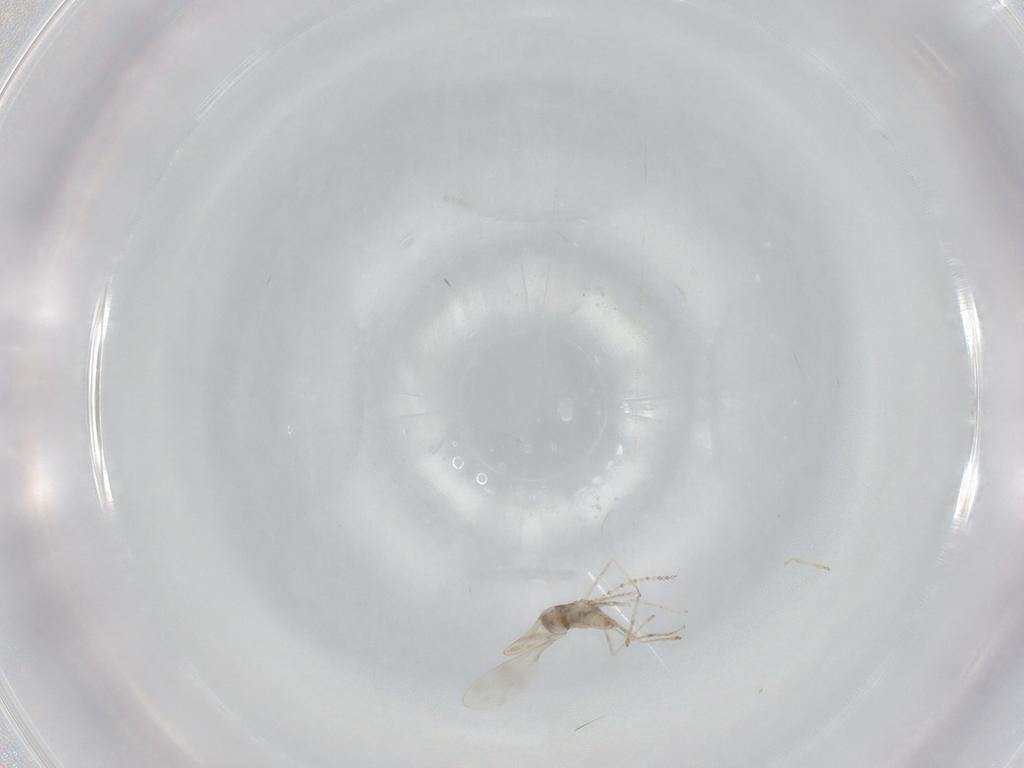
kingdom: Animalia
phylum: Arthropoda
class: Insecta
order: Diptera
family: Cecidomyiidae
